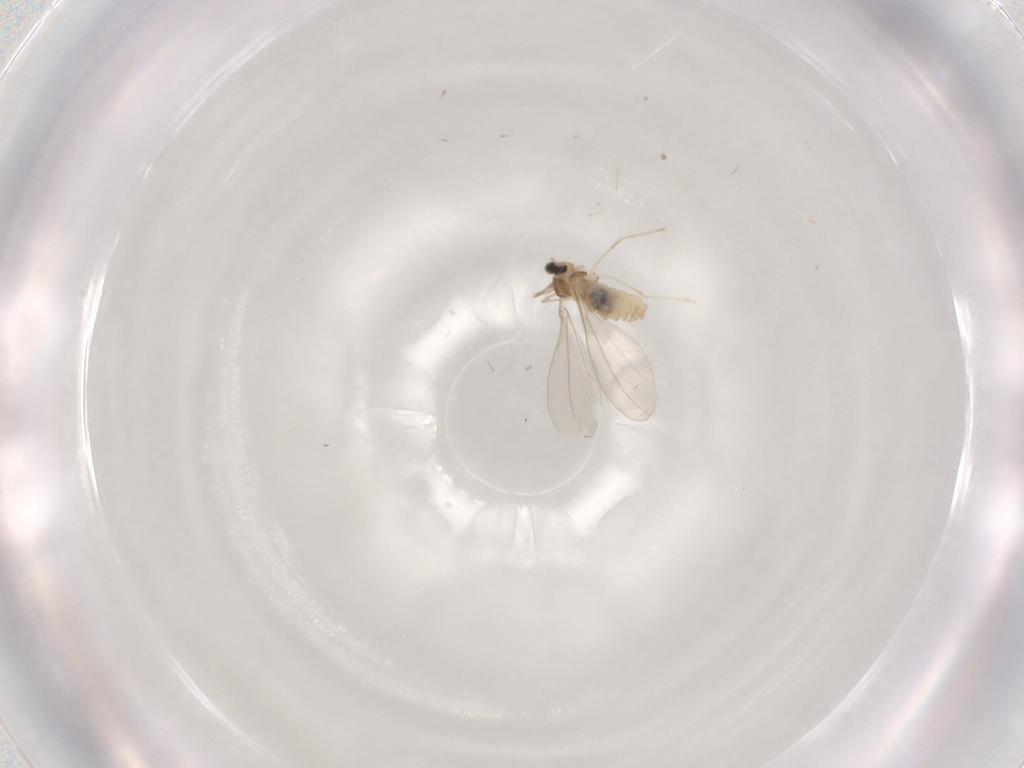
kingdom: Animalia
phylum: Arthropoda
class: Insecta
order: Diptera
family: Cecidomyiidae
